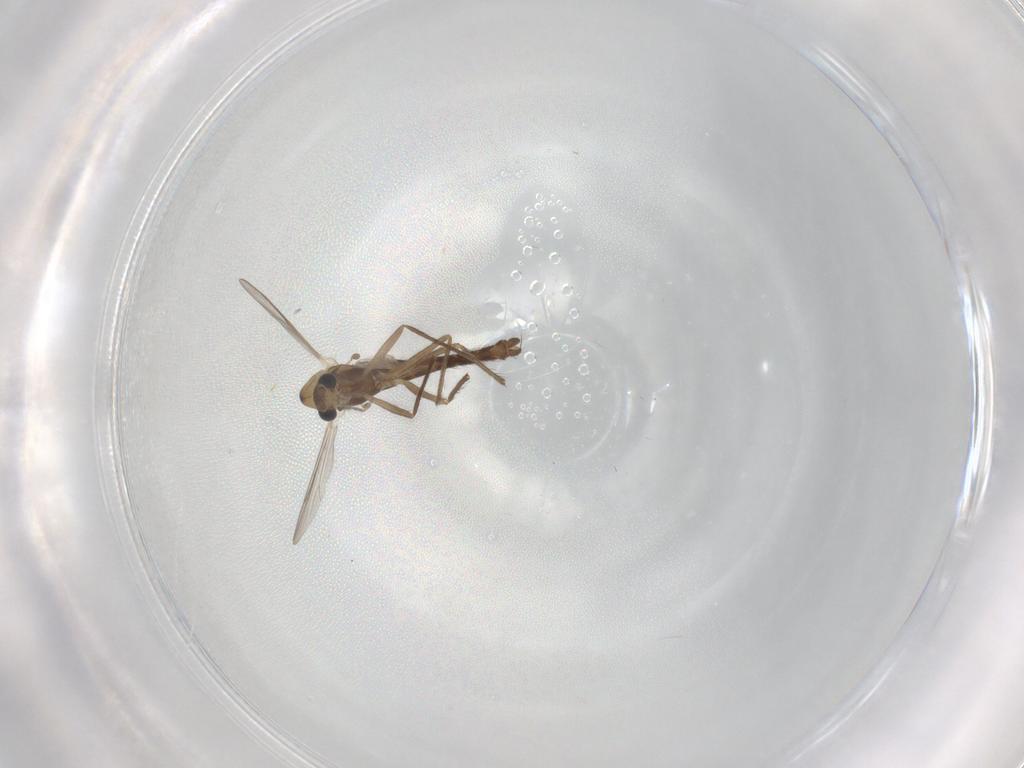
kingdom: Animalia
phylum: Arthropoda
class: Insecta
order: Diptera
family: Chironomidae
